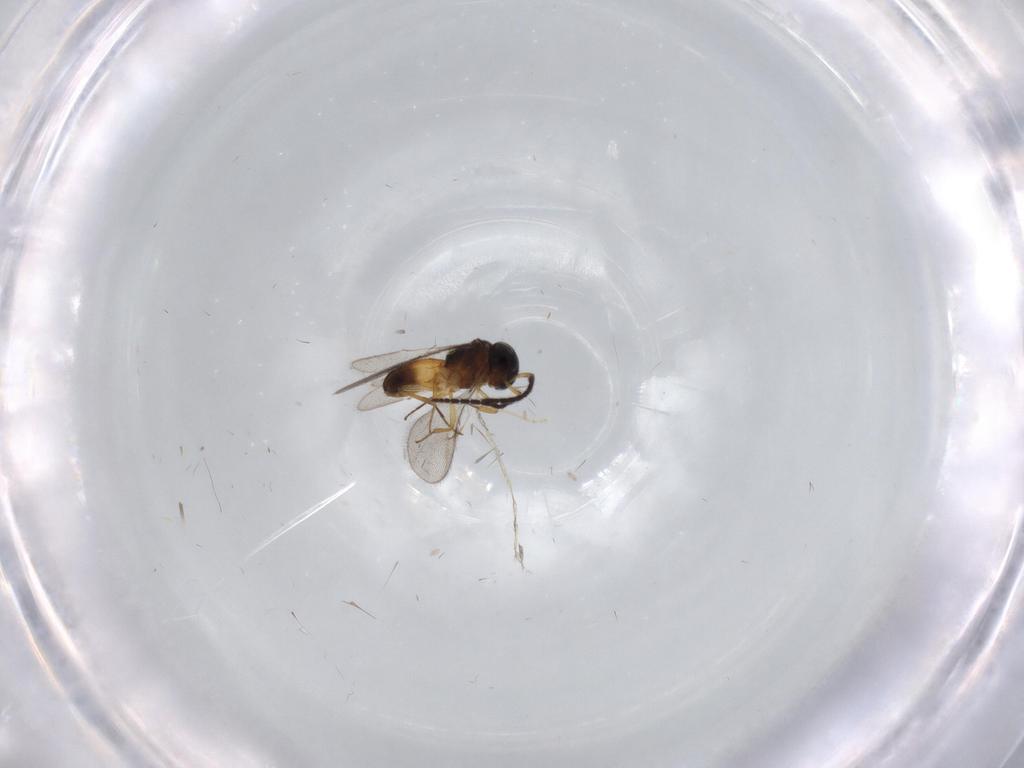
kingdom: Animalia
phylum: Arthropoda
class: Insecta
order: Hymenoptera
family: Scelionidae
